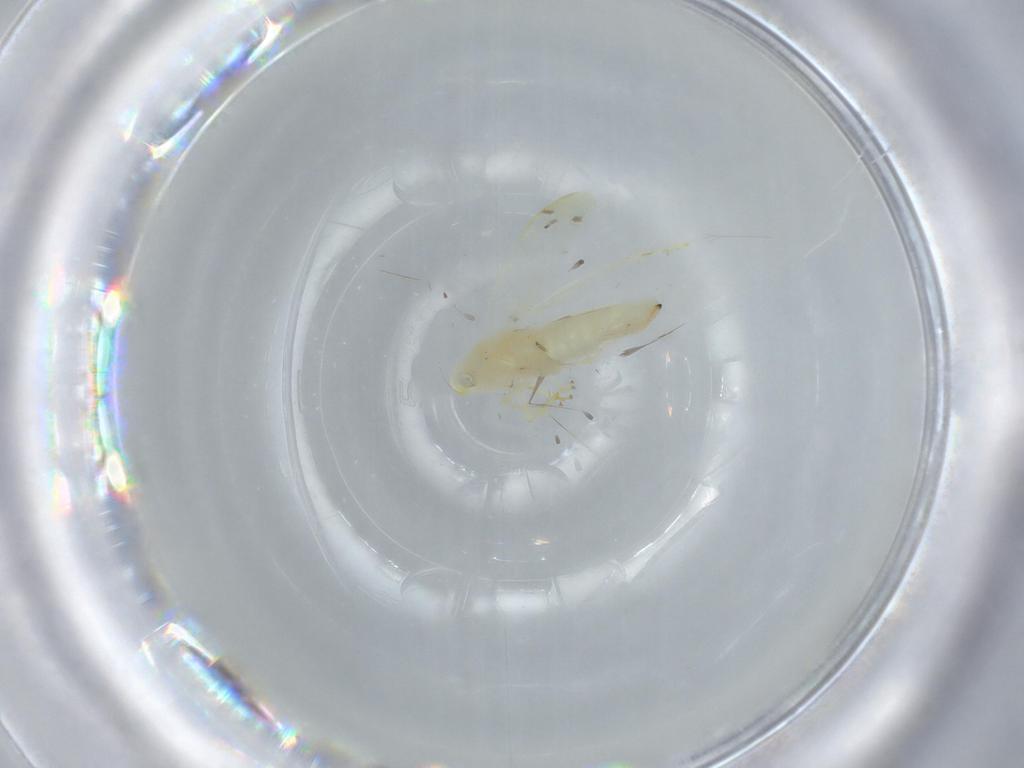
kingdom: Animalia
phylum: Arthropoda
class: Insecta
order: Hemiptera
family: Cicadellidae
